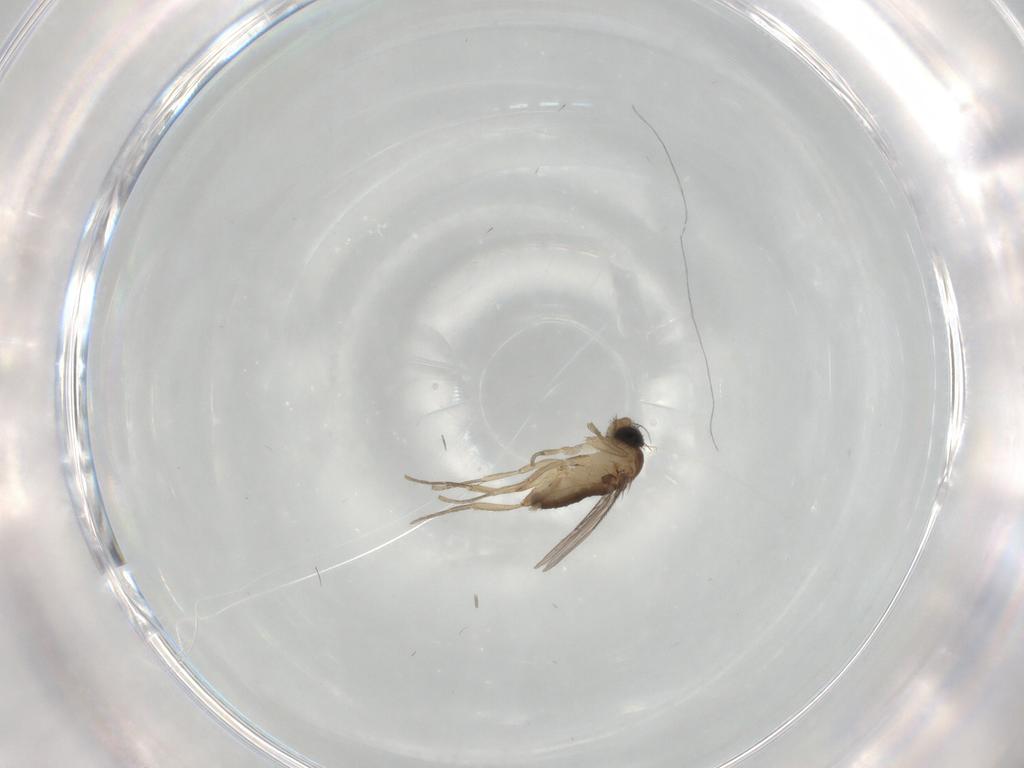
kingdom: Animalia
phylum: Arthropoda
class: Insecta
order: Diptera
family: Phoridae
